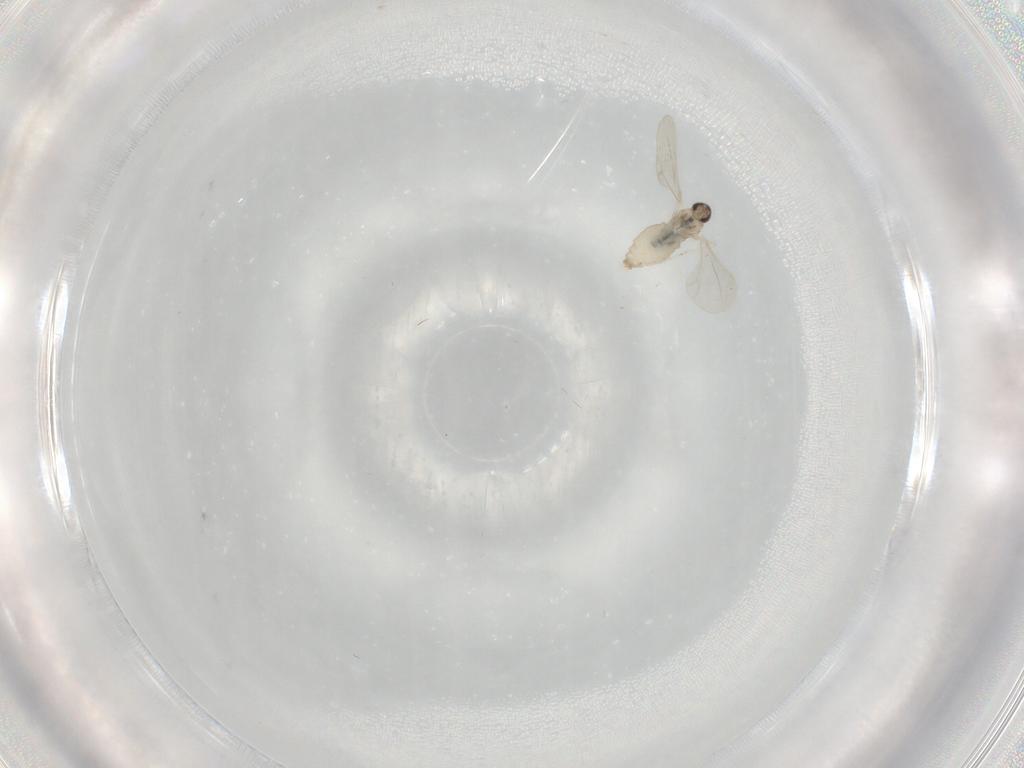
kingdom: Animalia
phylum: Arthropoda
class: Insecta
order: Diptera
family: Cecidomyiidae
